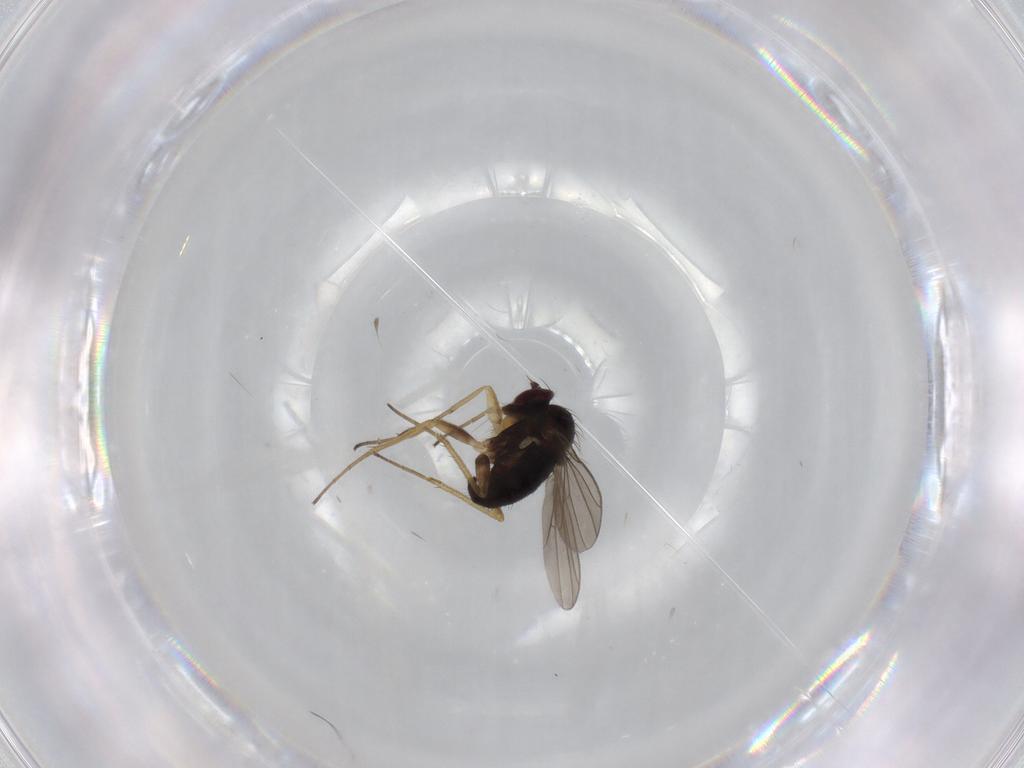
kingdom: Animalia
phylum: Arthropoda
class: Insecta
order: Diptera
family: Dolichopodidae
